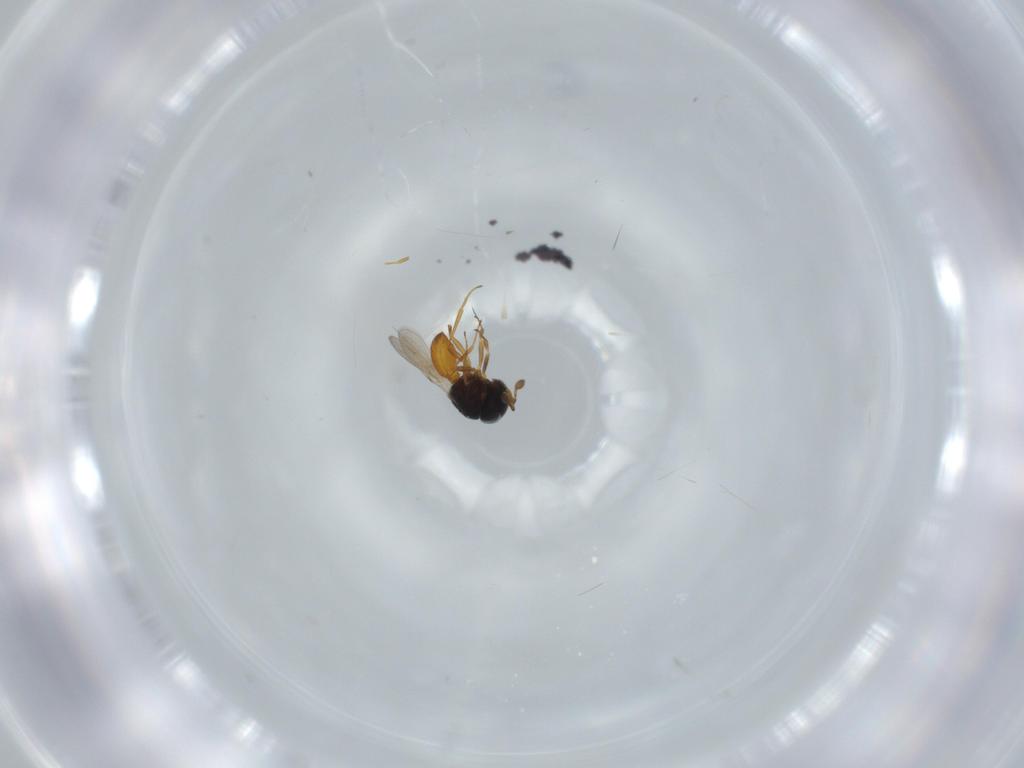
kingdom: Animalia
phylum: Arthropoda
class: Insecta
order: Hymenoptera
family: Scelionidae
